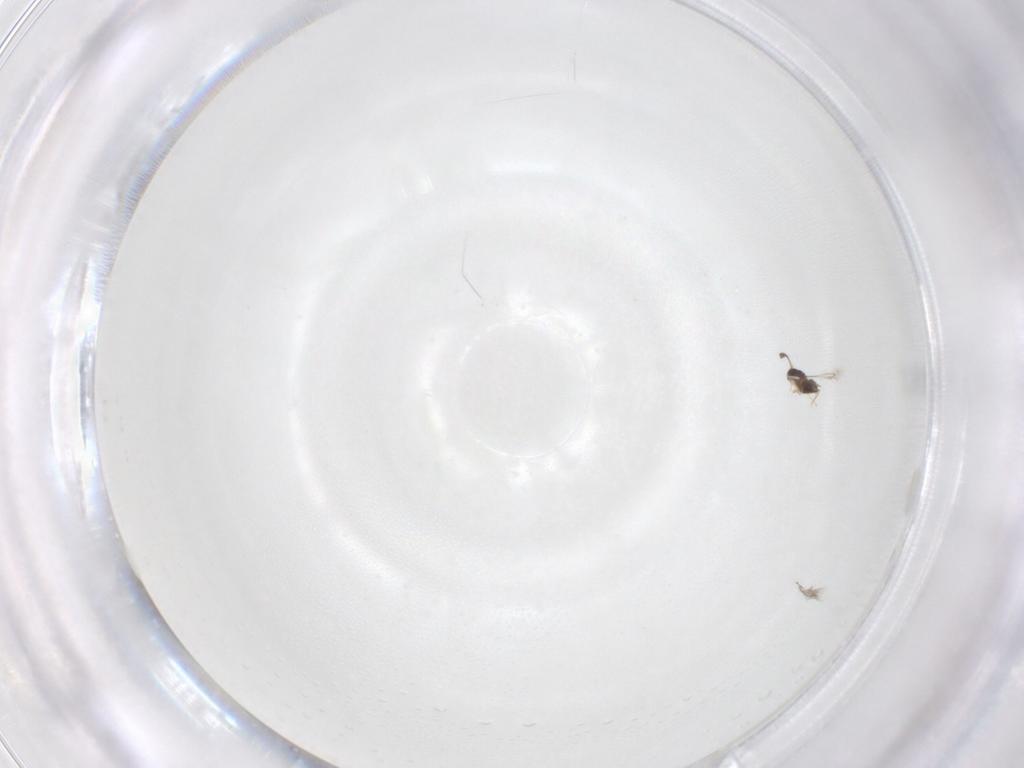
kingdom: Animalia
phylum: Arthropoda
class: Insecta
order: Hemiptera
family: Cicadellidae
